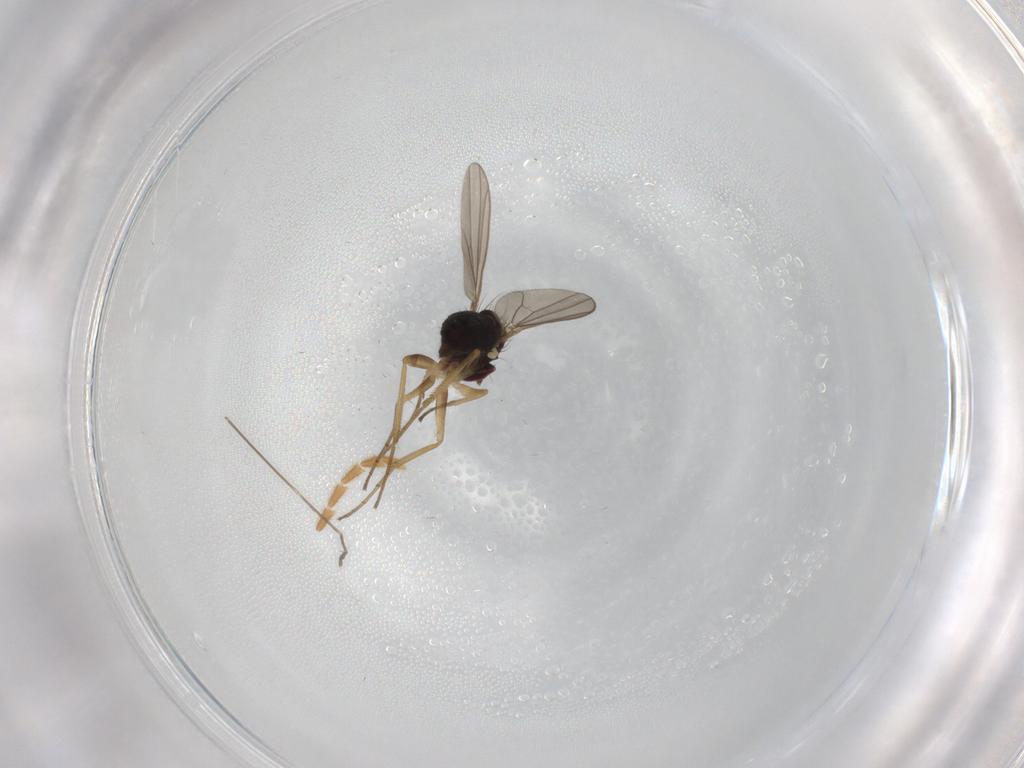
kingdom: Animalia
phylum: Arthropoda
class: Insecta
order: Diptera
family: Dolichopodidae
